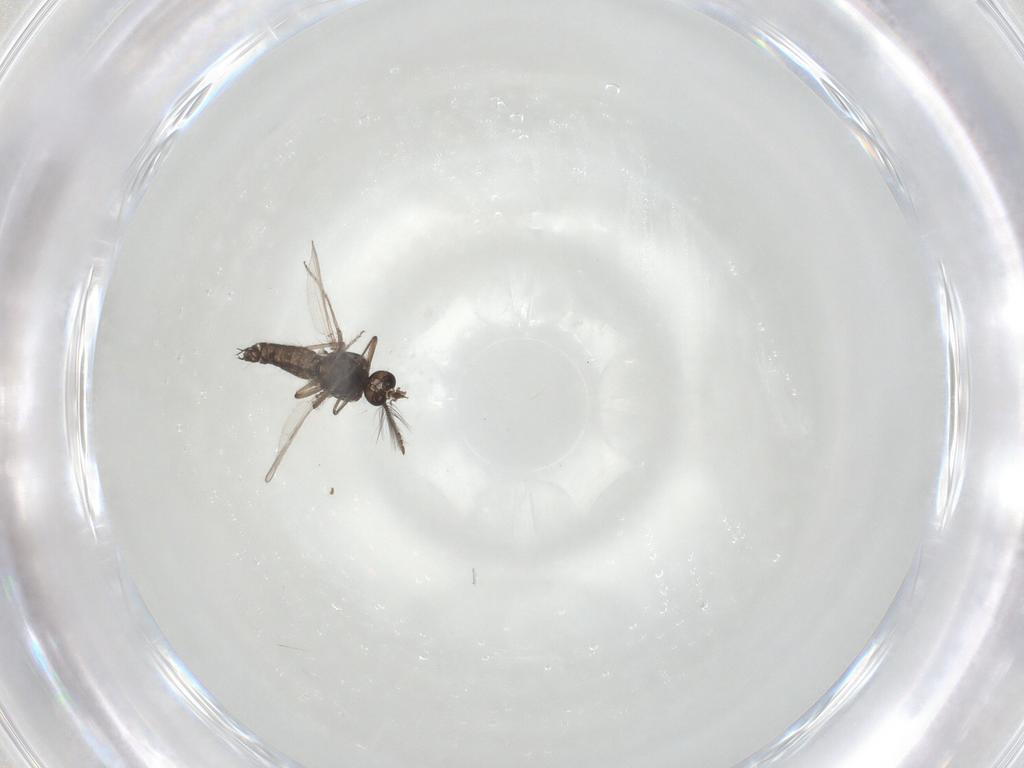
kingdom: Animalia
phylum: Arthropoda
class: Insecta
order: Diptera
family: Ceratopogonidae
